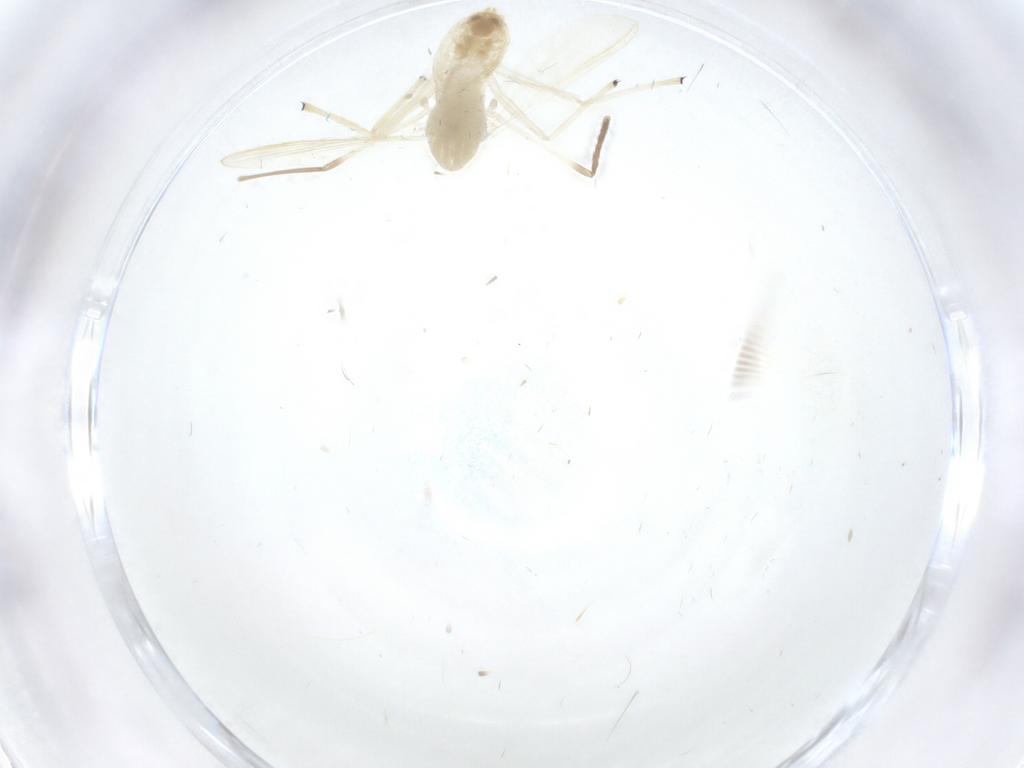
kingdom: Animalia
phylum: Arthropoda
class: Insecta
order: Diptera
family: Chironomidae
